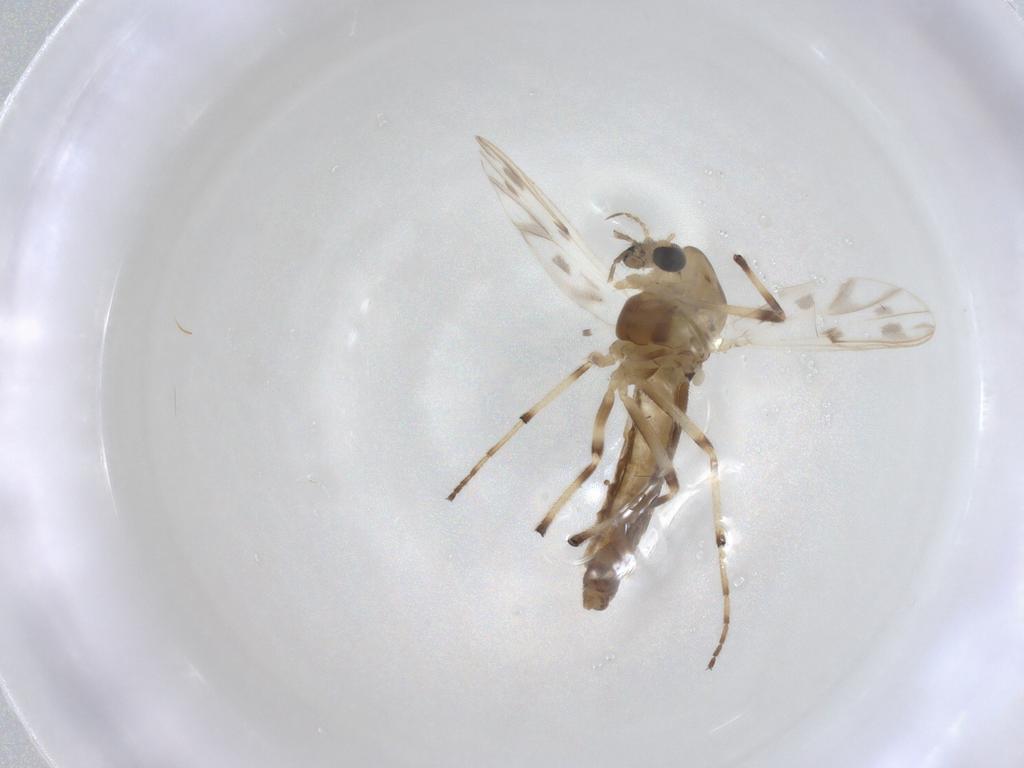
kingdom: Animalia
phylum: Arthropoda
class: Insecta
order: Diptera
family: Chironomidae
